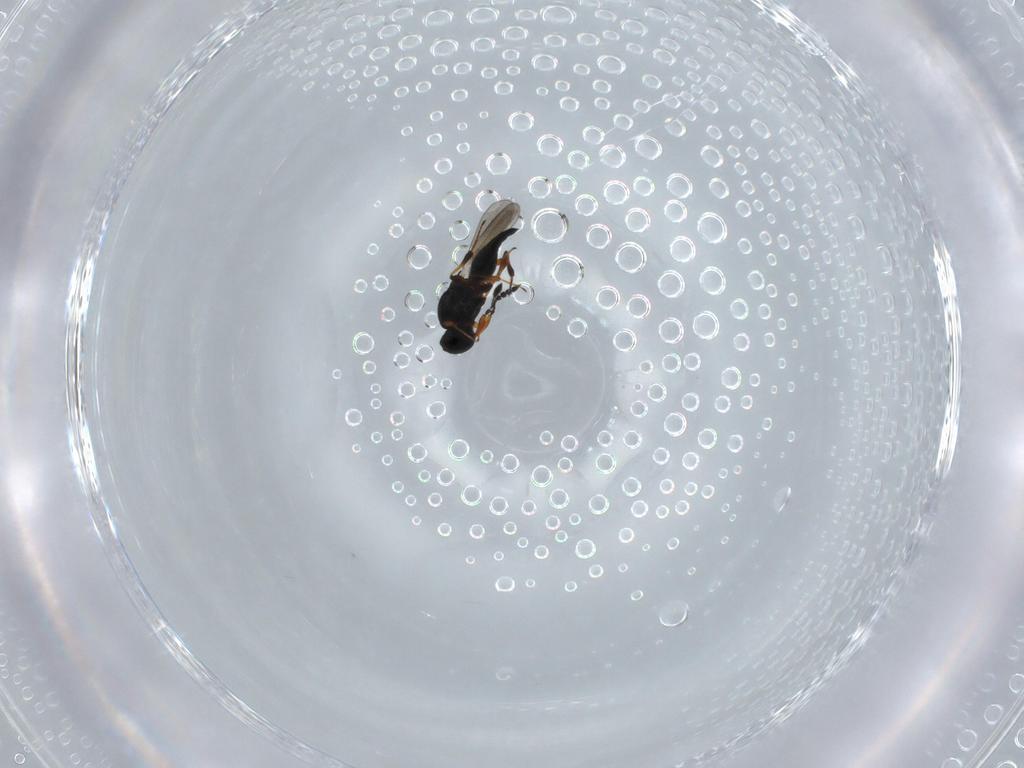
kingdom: Animalia
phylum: Arthropoda
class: Insecta
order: Hymenoptera
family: Platygastridae
